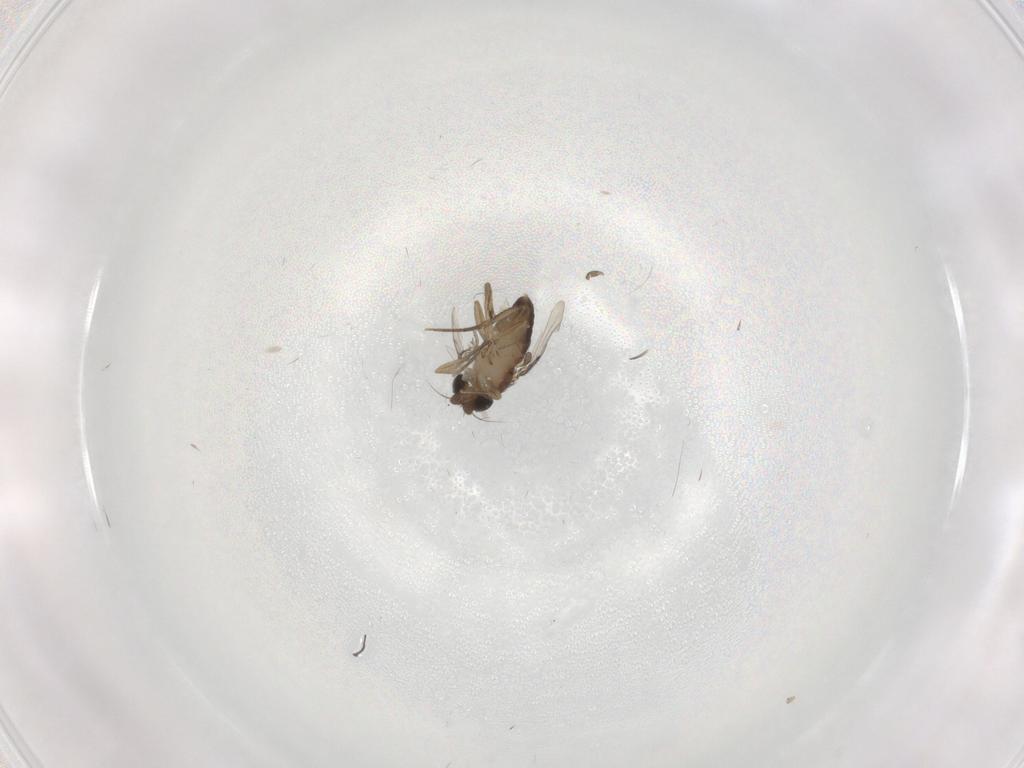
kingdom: Animalia
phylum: Arthropoda
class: Insecta
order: Diptera
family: Phoridae
